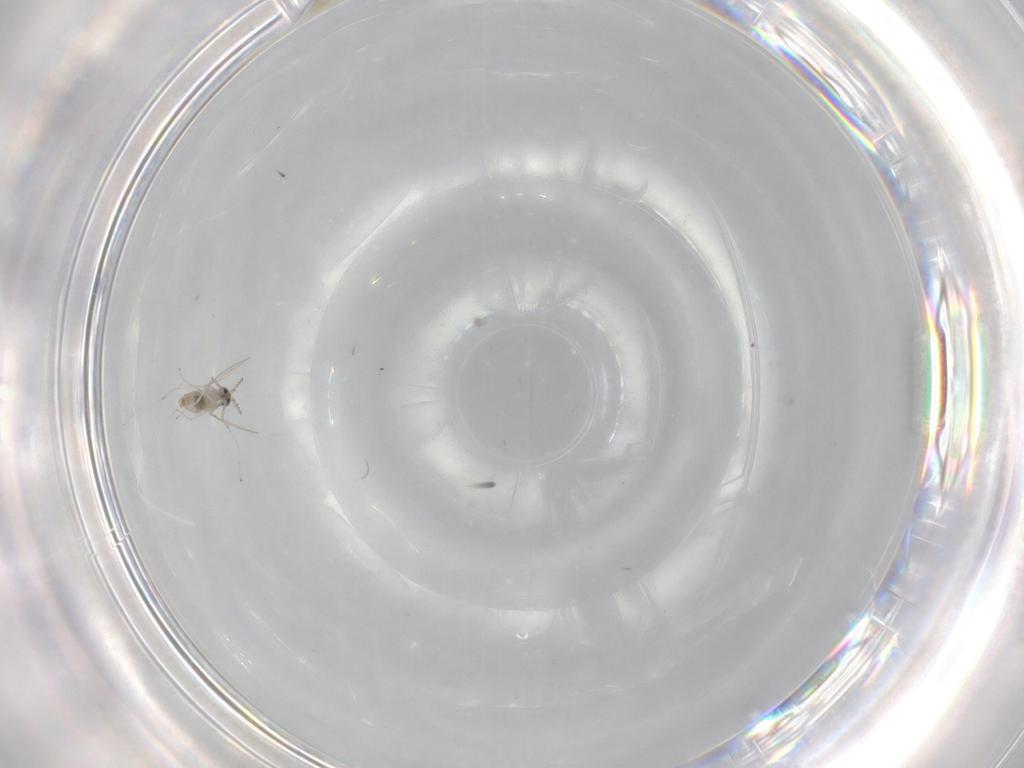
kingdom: Animalia
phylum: Arthropoda
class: Insecta
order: Diptera
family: Cecidomyiidae
